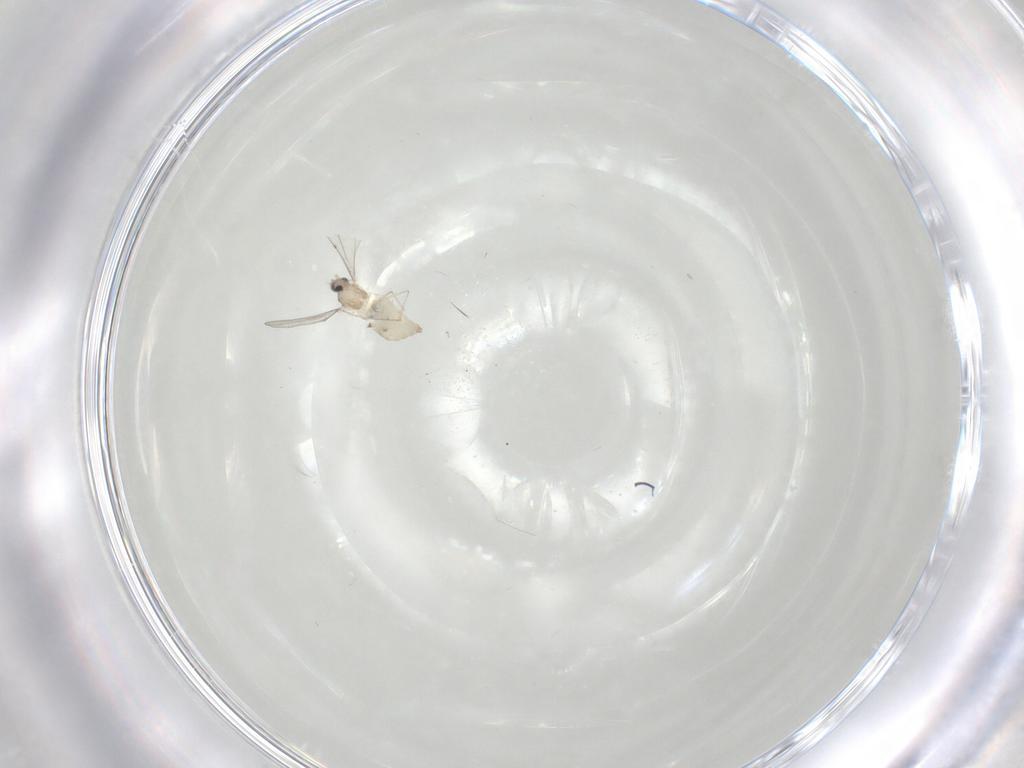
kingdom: Animalia
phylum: Arthropoda
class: Insecta
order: Diptera
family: Cecidomyiidae
